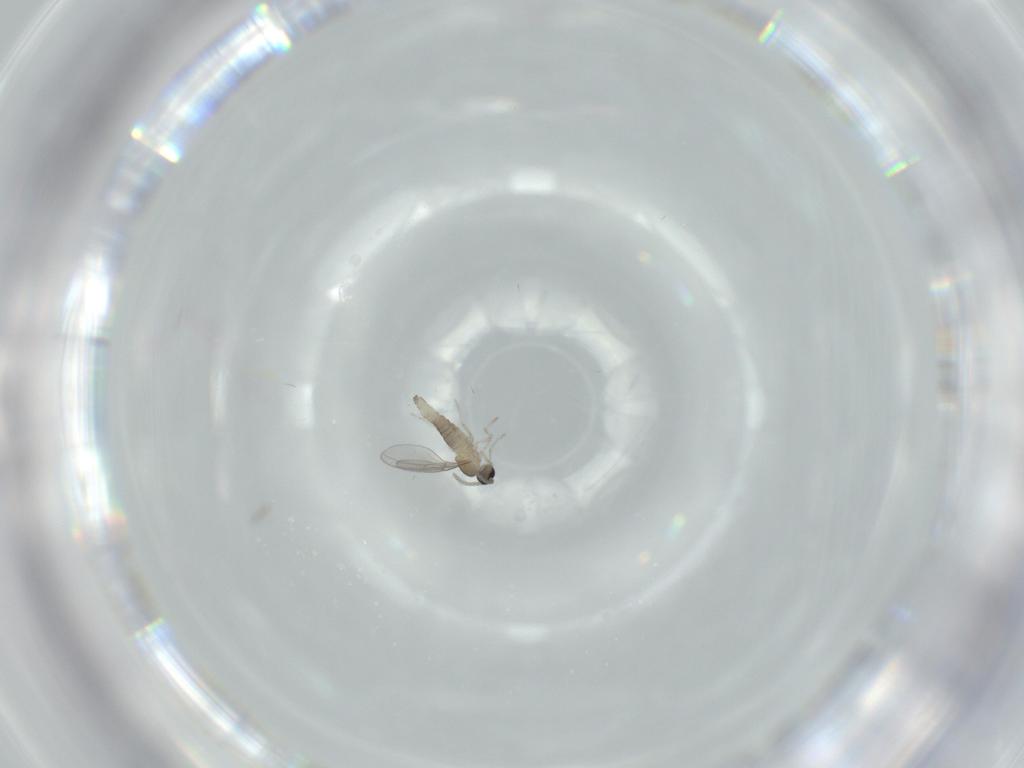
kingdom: Animalia
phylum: Arthropoda
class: Insecta
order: Diptera
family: Cecidomyiidae
